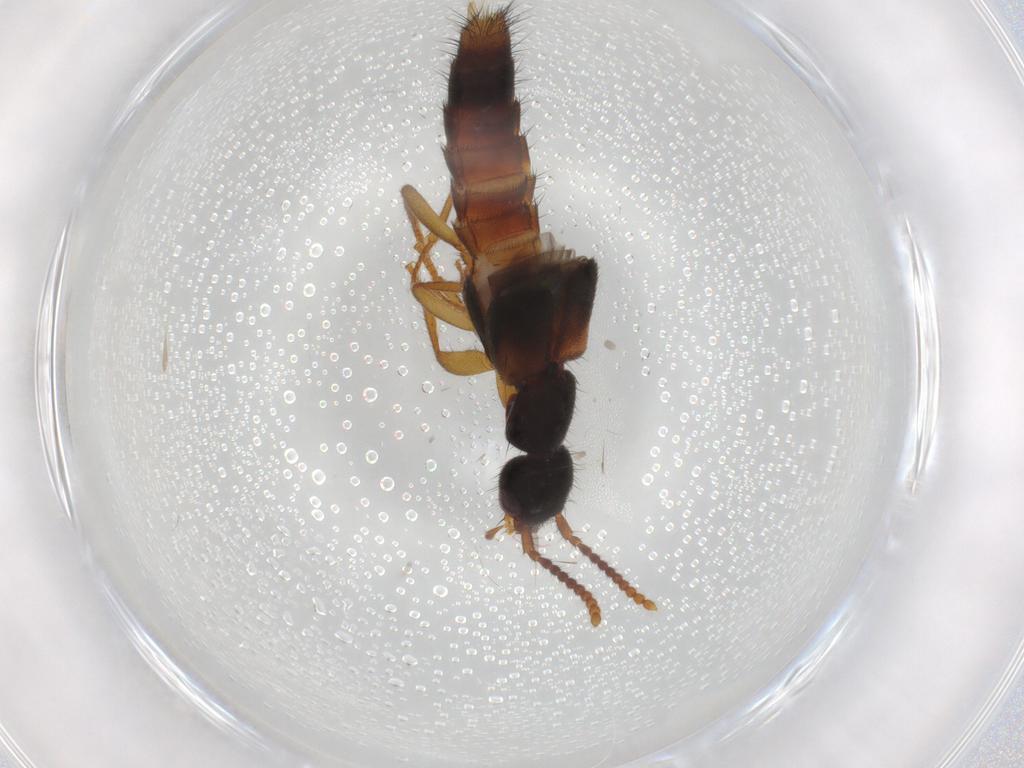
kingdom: Animalia
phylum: Arthropoda
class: Insecta
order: Coleoptera
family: Staphylinidae
